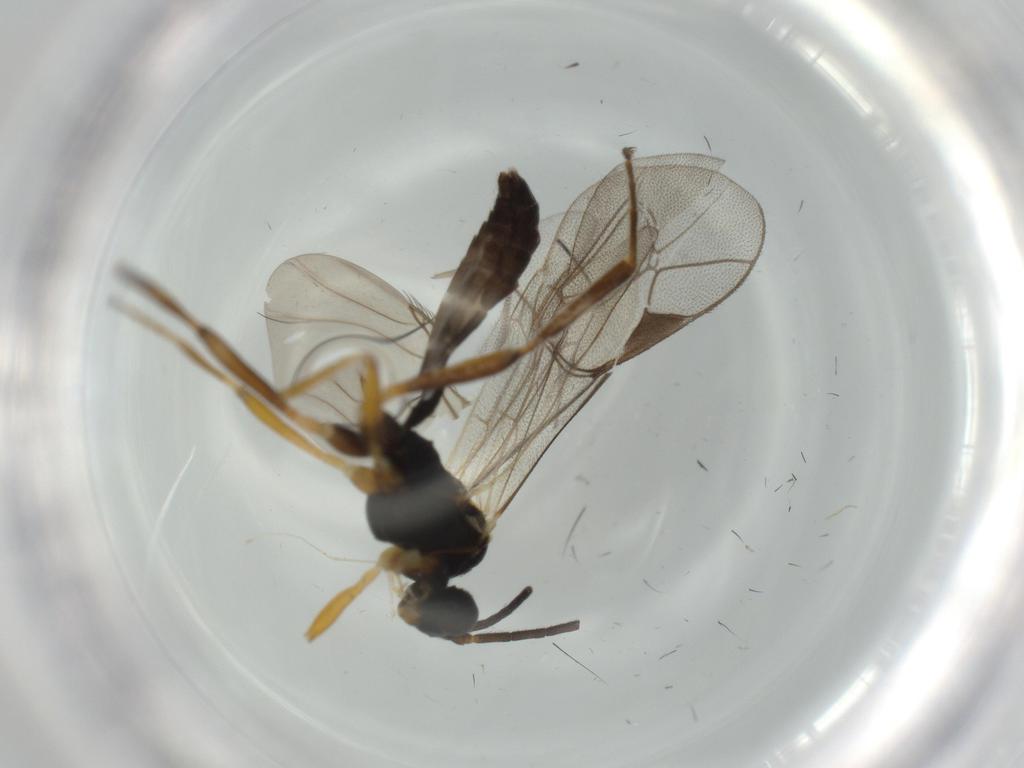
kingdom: Animalia
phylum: Arthropoda
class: Insecta
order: Hymenoptera
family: Ichneumonidae
